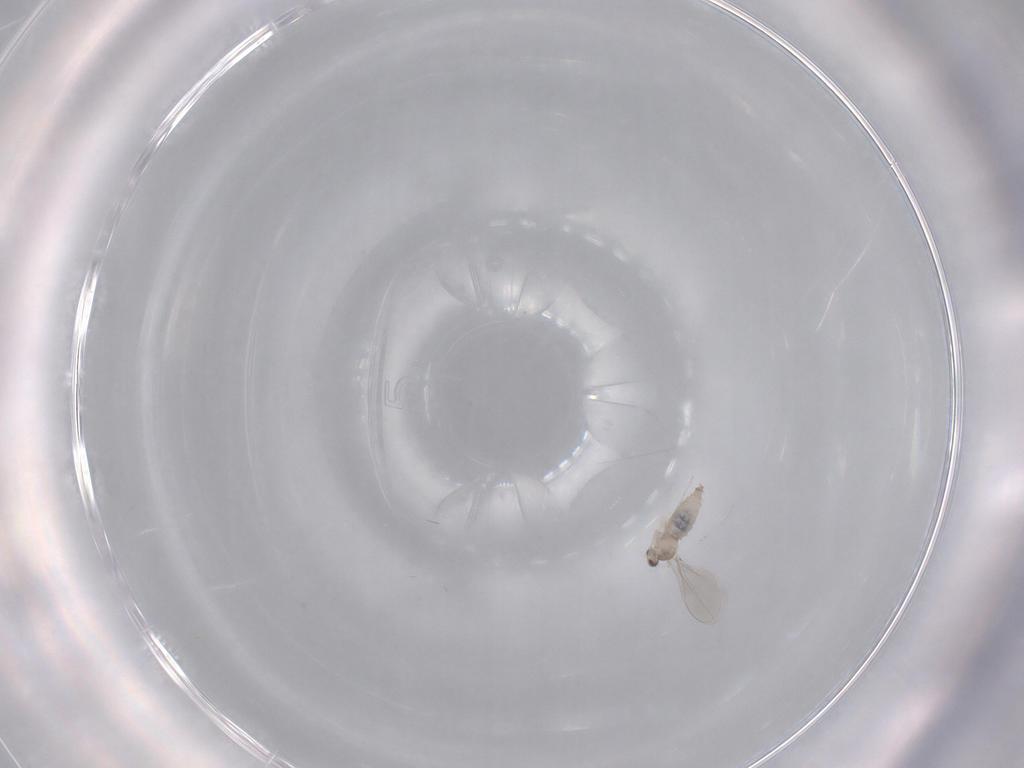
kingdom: Animalia
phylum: Arthropoda
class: Insecta
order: Diptera
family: Cecidomyiidae
